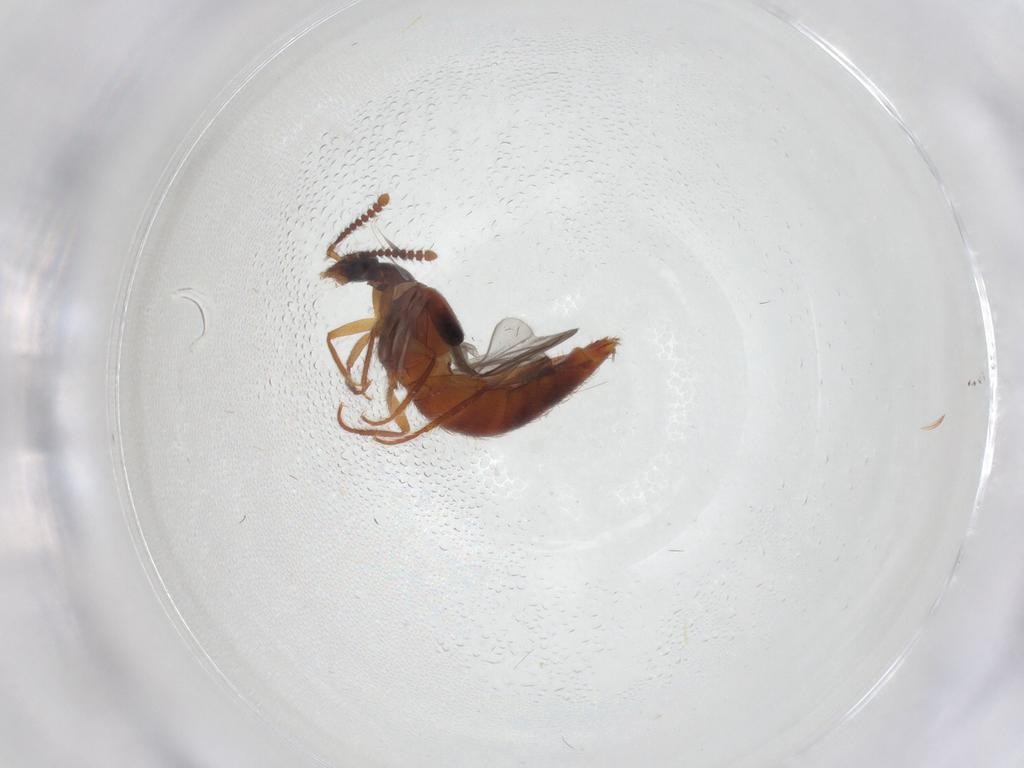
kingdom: Animalia
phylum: Arthropoda
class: Insecta
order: Coleoptera
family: Staphylinidae
